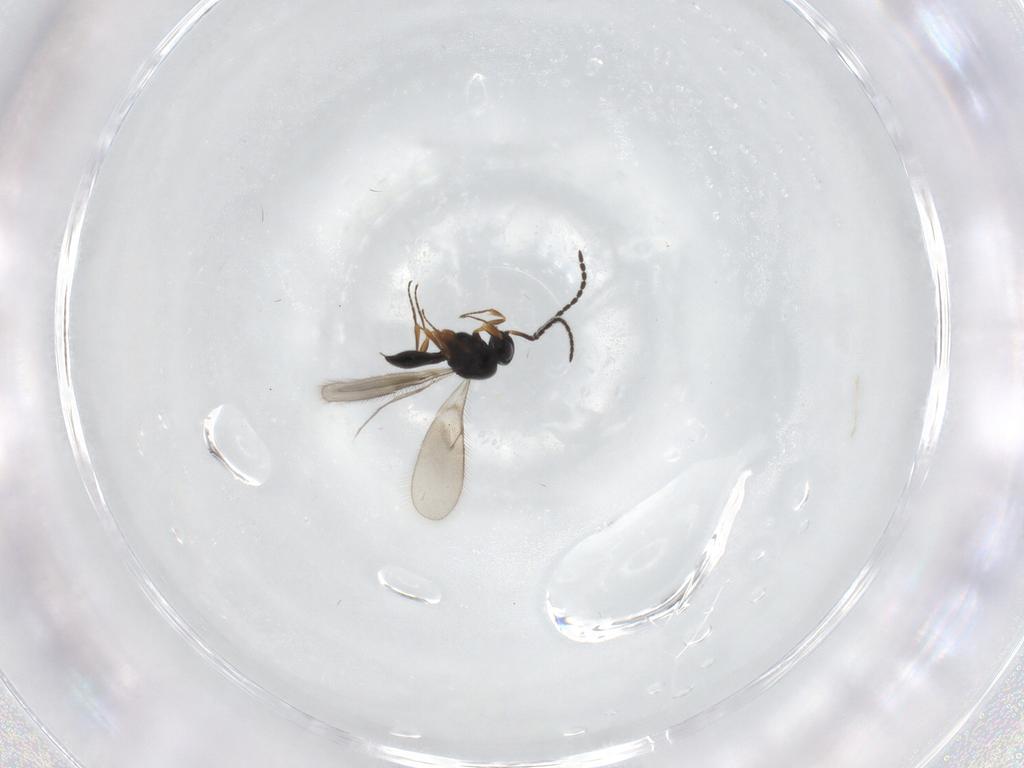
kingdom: Animalia
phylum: Arthropoda
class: Insecta
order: Hymenoptera
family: Scelionidae
